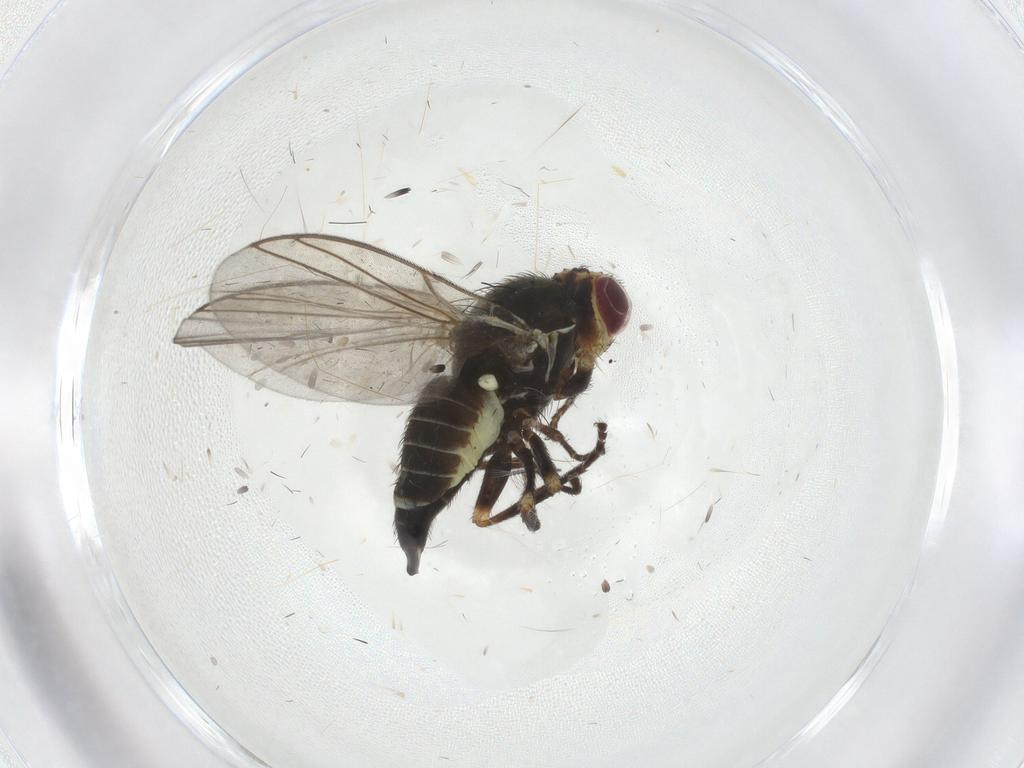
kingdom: Animalia
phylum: Arthropoda
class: Insecta
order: Diptera
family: Agromyzidae
